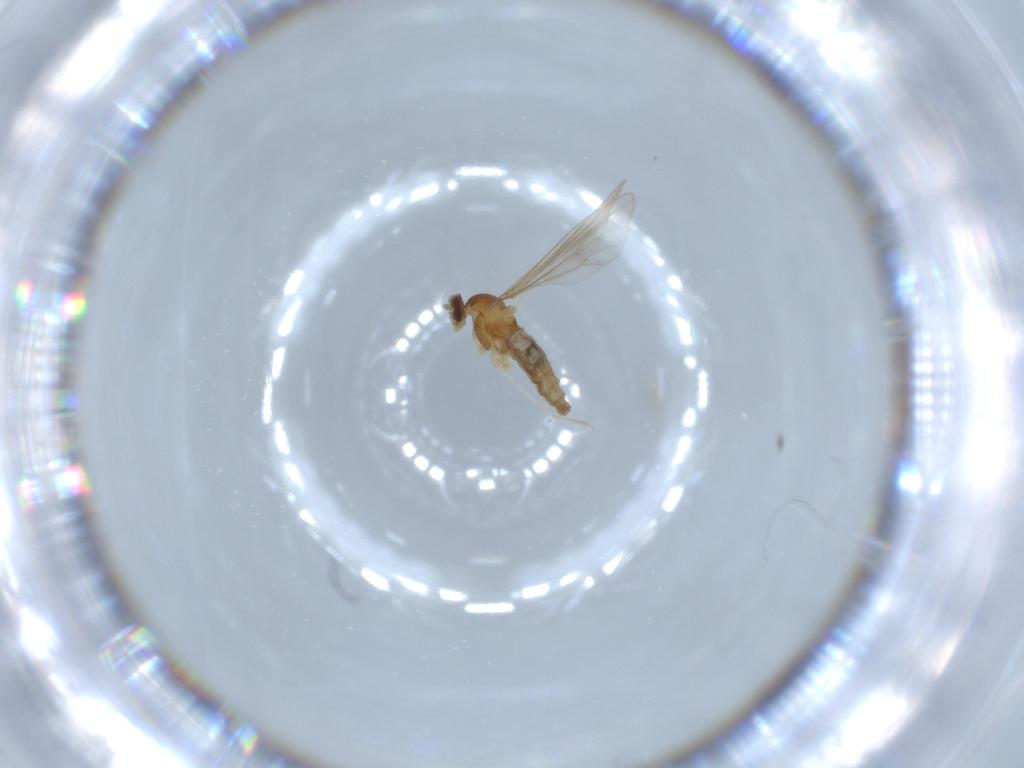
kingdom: Animalia
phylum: Arthropoda
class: Insecta
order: Diptera
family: Cecidomyiidae
